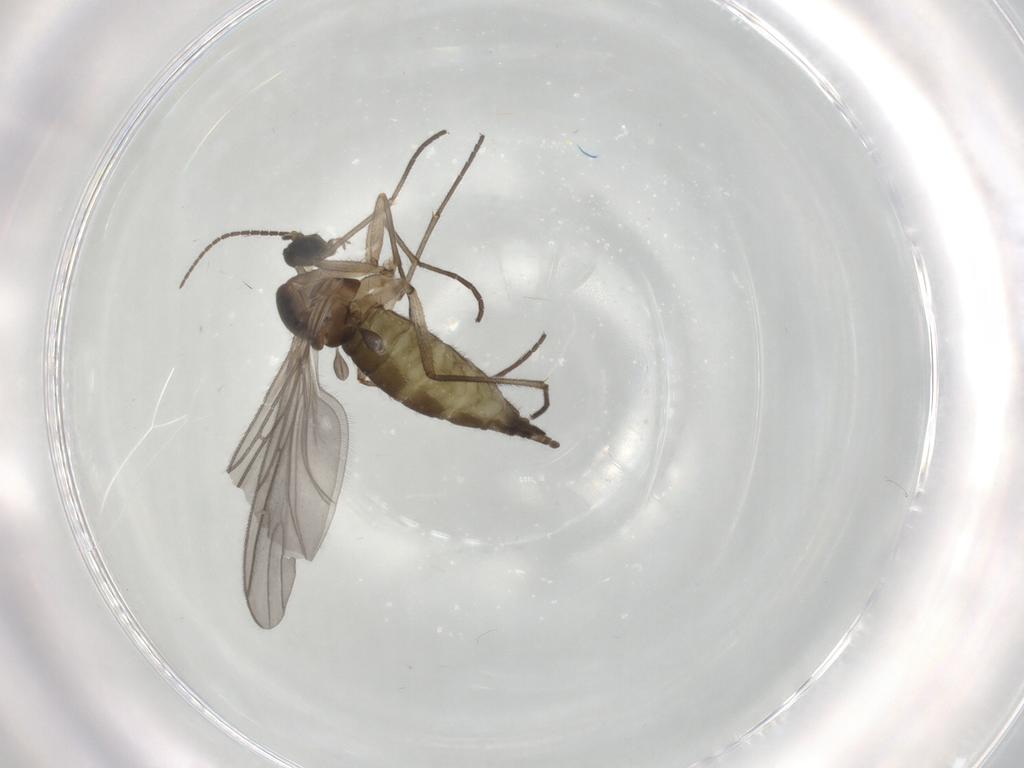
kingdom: Animalia
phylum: Arthropoda
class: Insecta
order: Diptera
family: Cecidomyiidae
